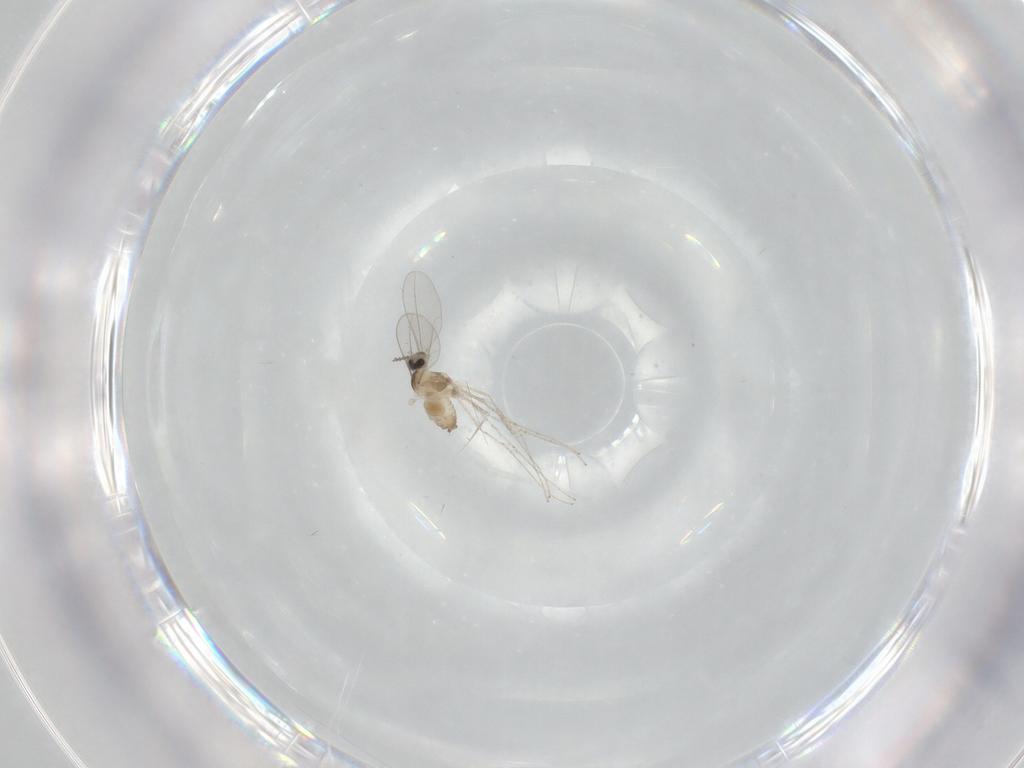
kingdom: Animalia
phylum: Arthropoda
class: Insecta
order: Diptera
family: Cecidomyiidae
